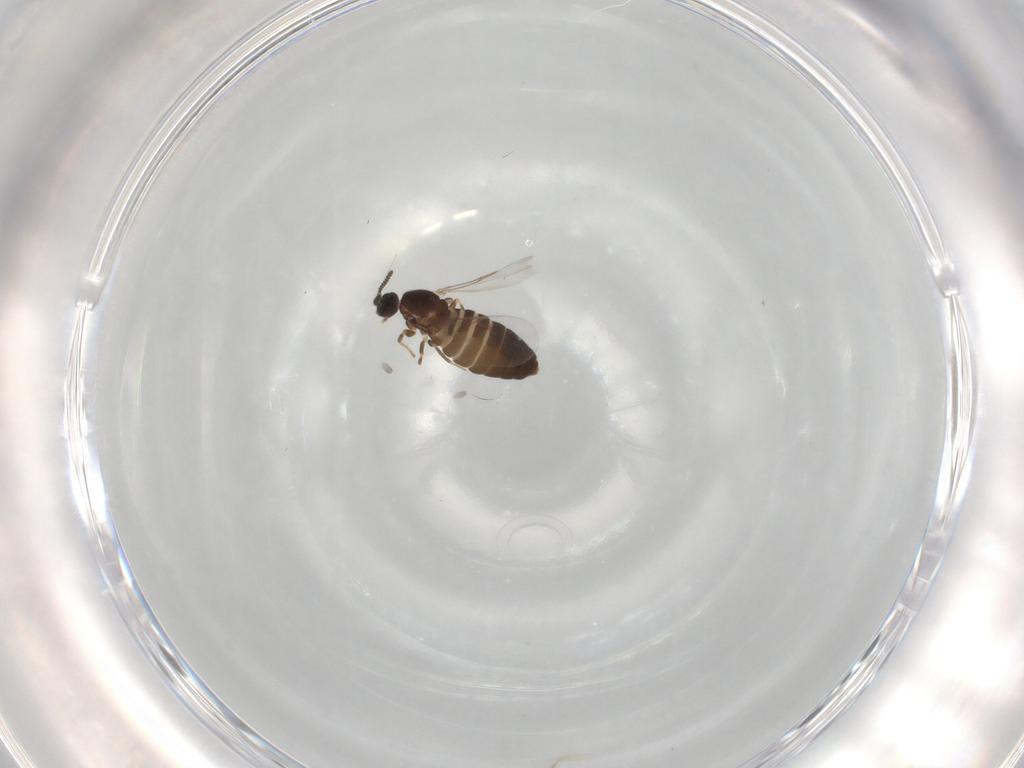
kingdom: Animalia
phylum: Arthropoda
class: Insecta
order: Diptera
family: Scatopsidae
